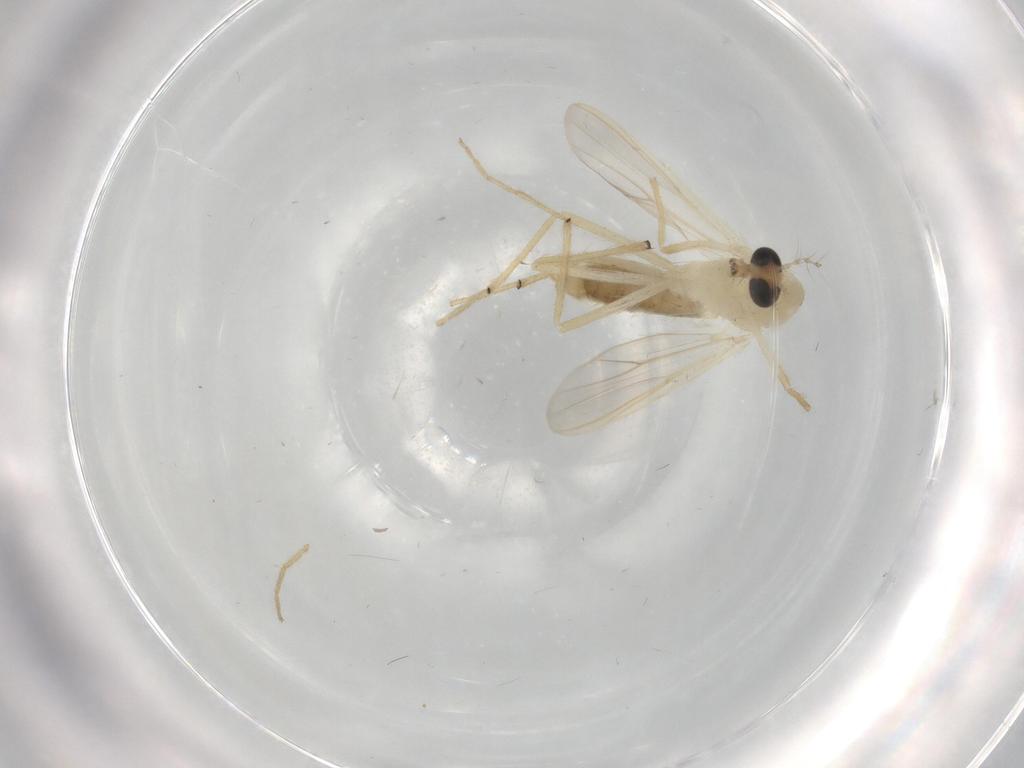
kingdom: Animalia
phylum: Arthropoda
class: Insecta
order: Diptera
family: Chironomidae
